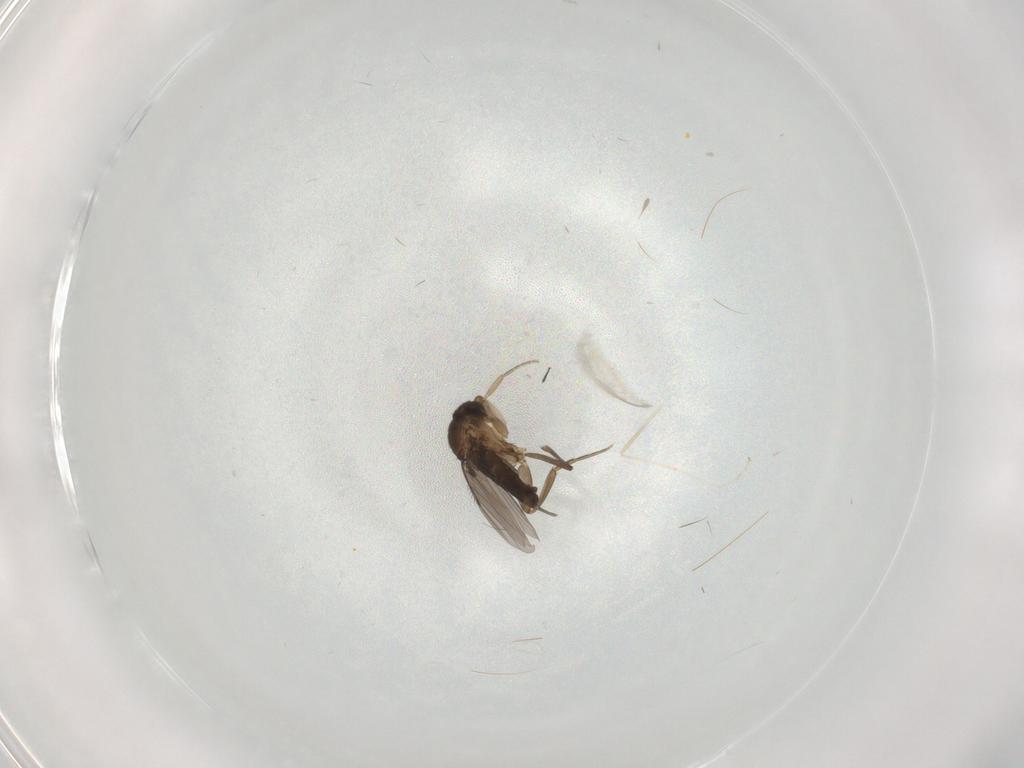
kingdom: Animalia
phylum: Arthropoda
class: Insecta
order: Diptera
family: Phoridae
